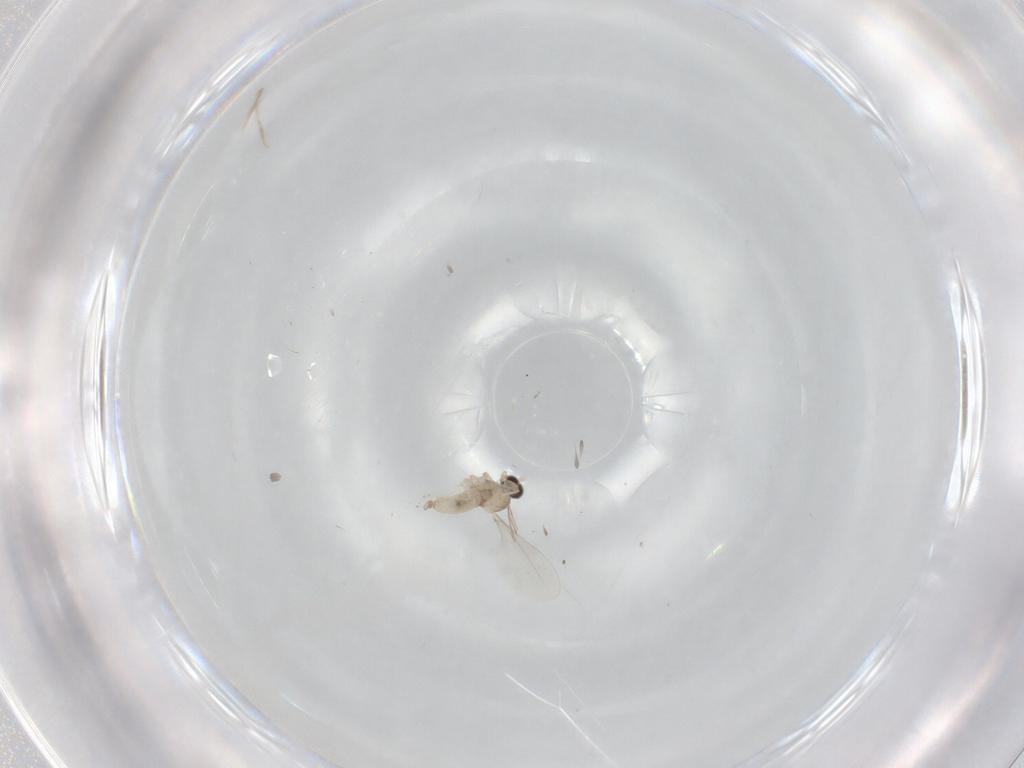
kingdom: Animalia
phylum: Arthropoda
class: Insecta
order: Diptera
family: Cecidomyiidae
